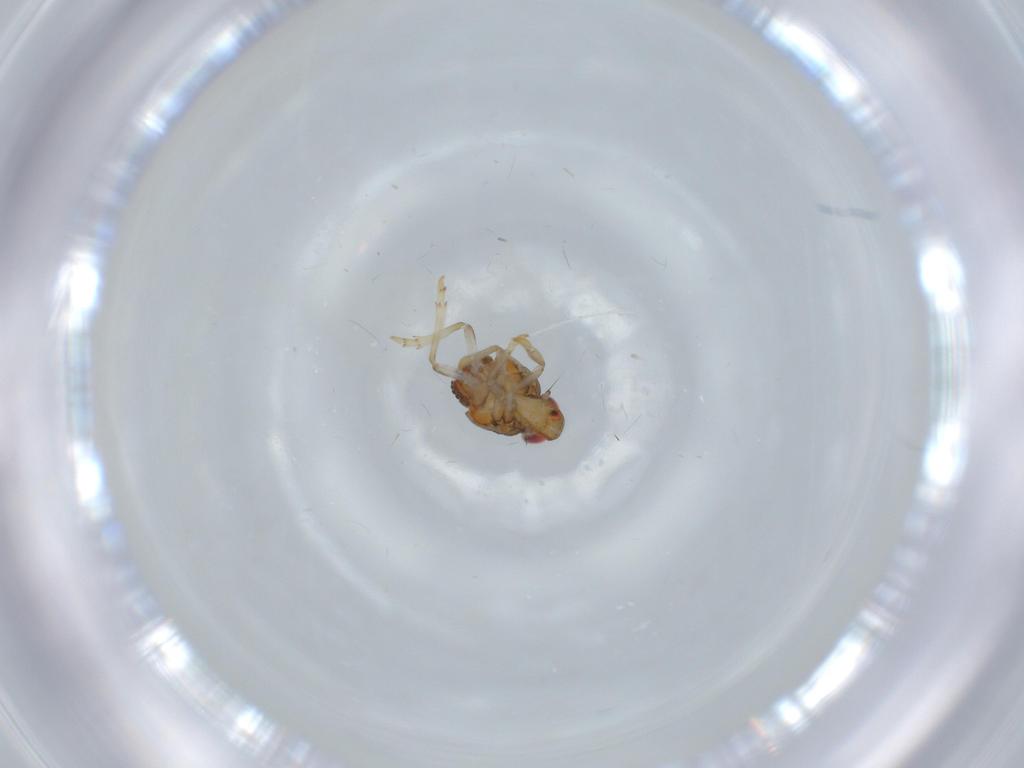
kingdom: Animalia
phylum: Arthropoda
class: Insecta
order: Hemiptera
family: Issidae
